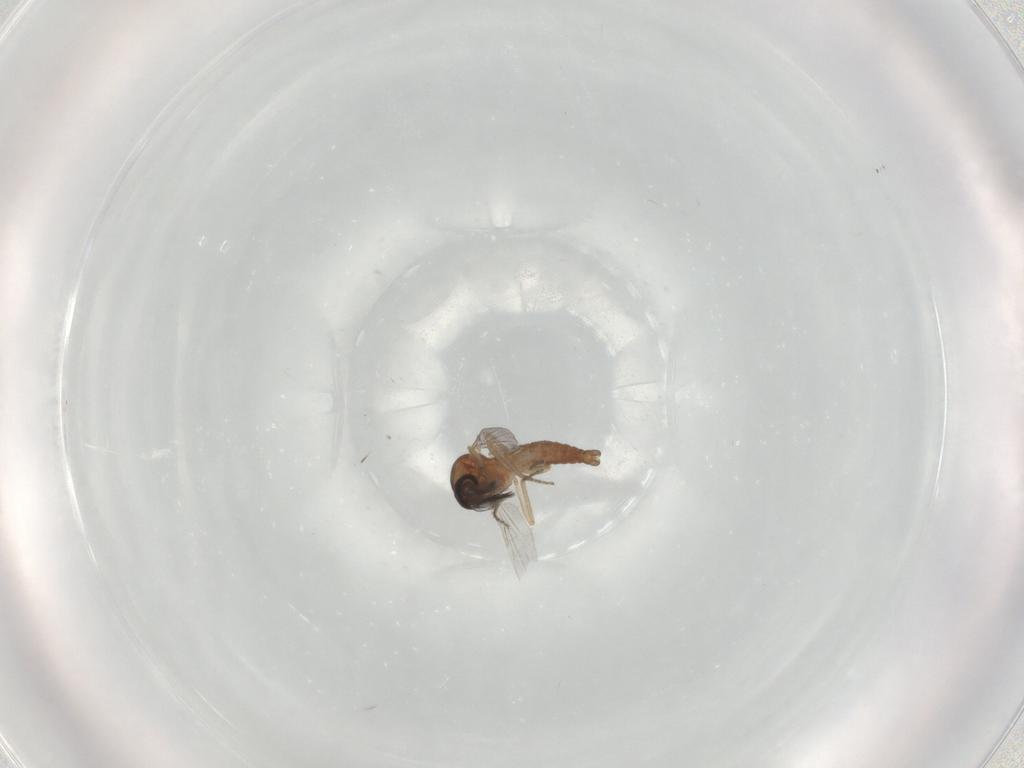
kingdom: Animalia
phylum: Arthropoda
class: Insecta
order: Diptera
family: Ceratopogonidae
